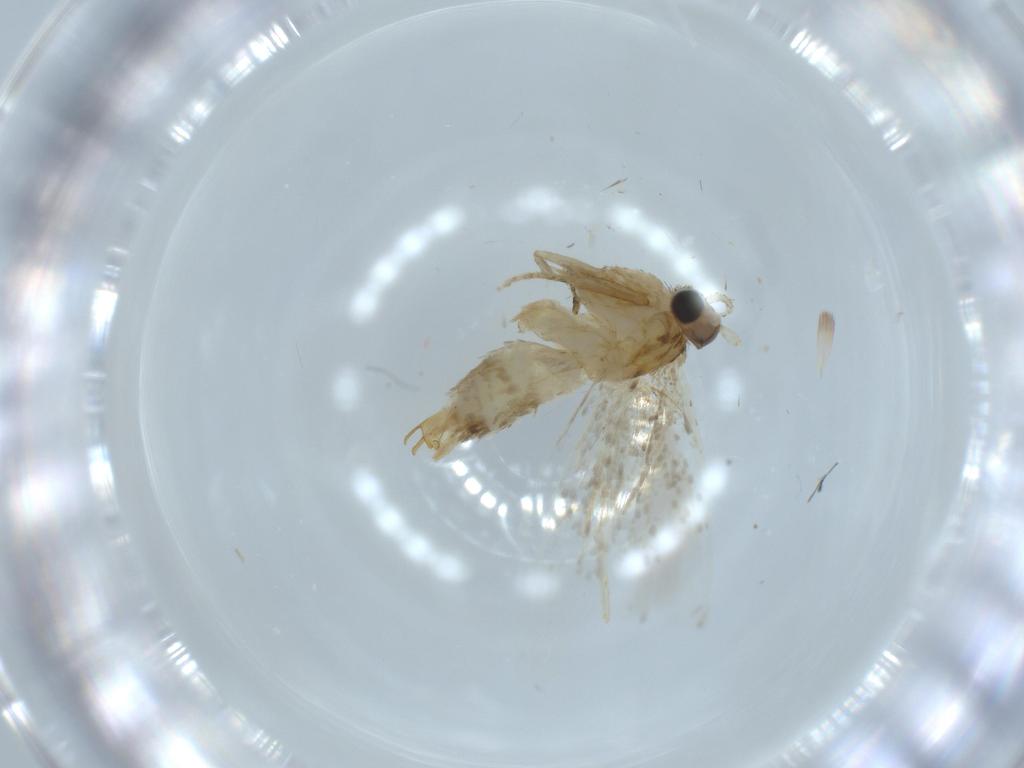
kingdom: Animalia
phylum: Arthropoda
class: Insecta
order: Lepidoptera
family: Tineidae
